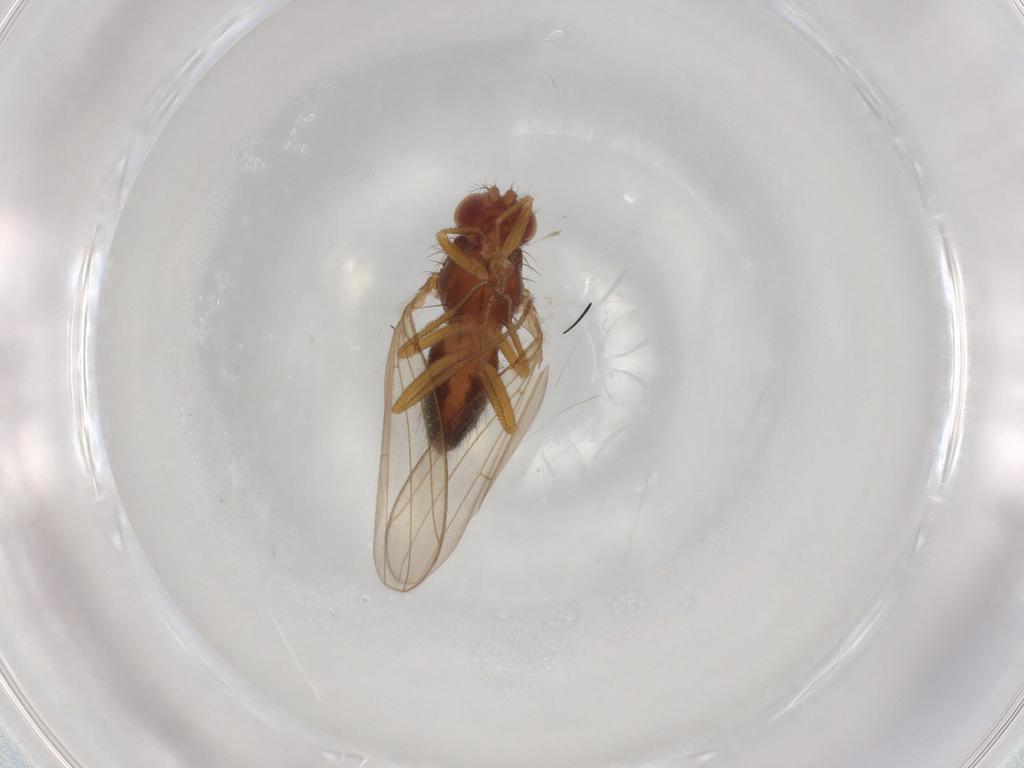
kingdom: Animalia
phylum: Arthropoda
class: Insecta
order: Diptera
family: Drosophilidae
